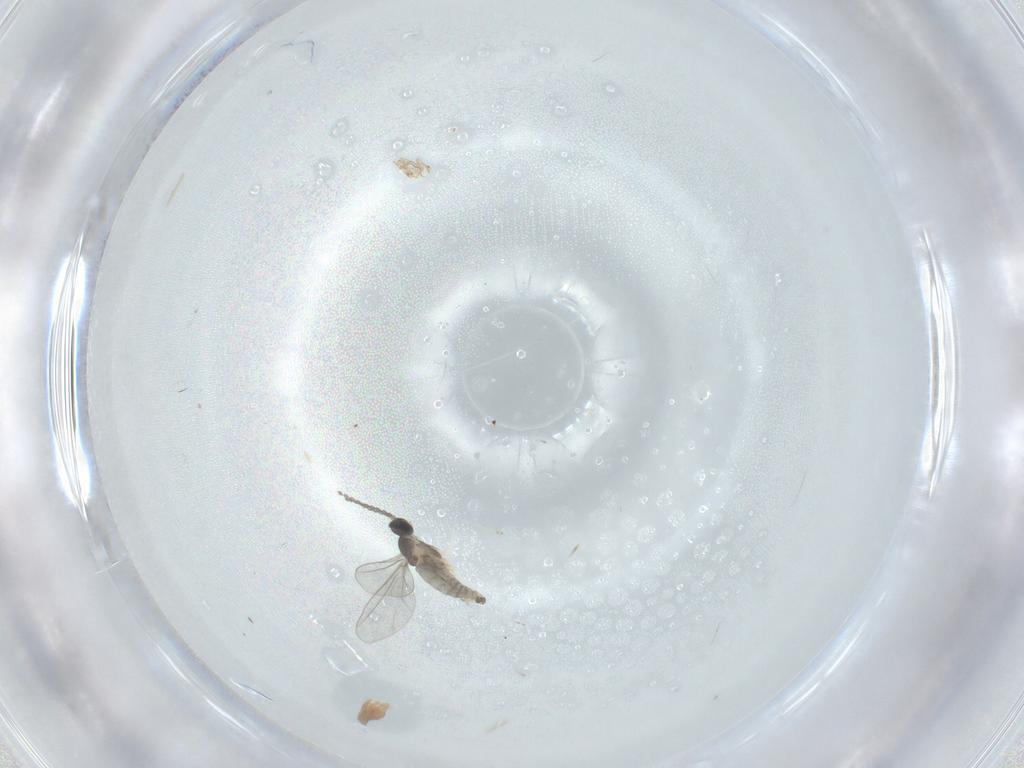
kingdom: Animalia
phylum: Arthropoda
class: Insecta
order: Diptera
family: Cecidomyiidae
